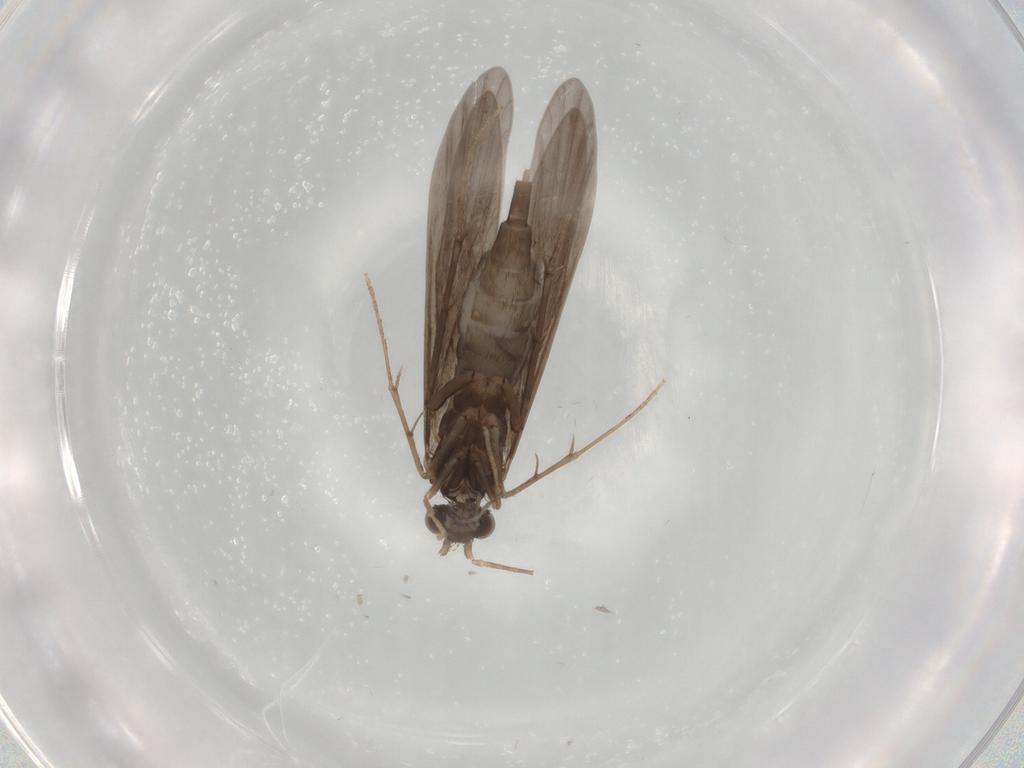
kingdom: Animalia
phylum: Arthropoda
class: Insecta
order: Trichoptera
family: Xiphocentronidae
